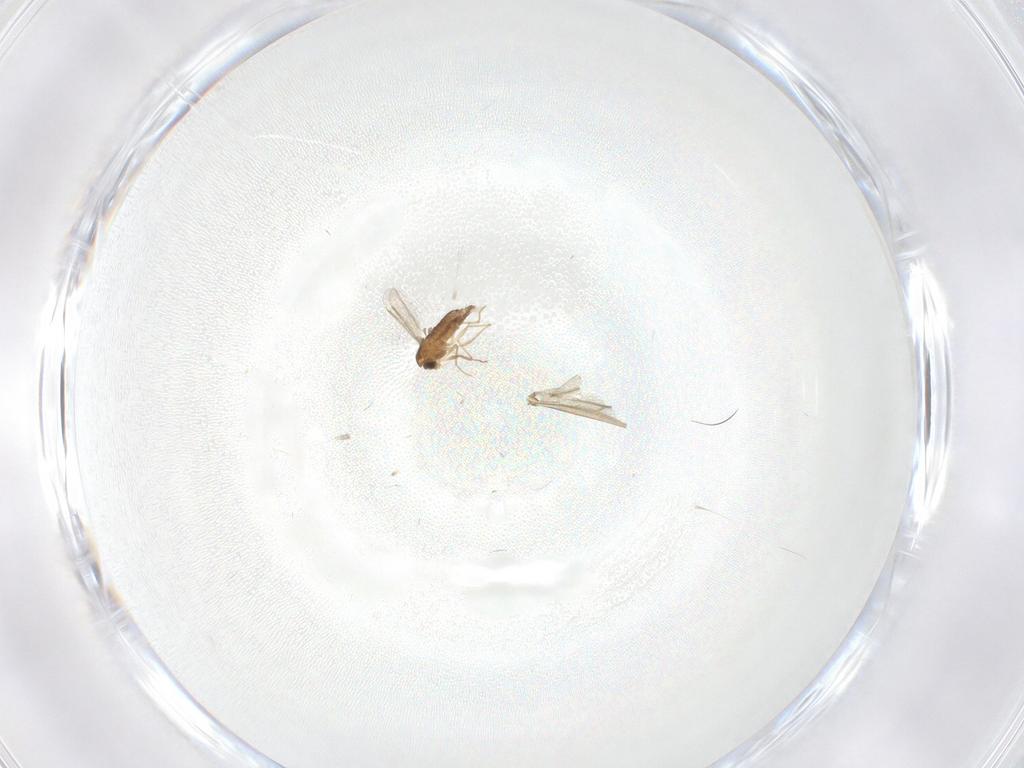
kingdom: Animalia
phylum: Arthropoda
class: Insecta
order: Diptera
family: Chironomidae
